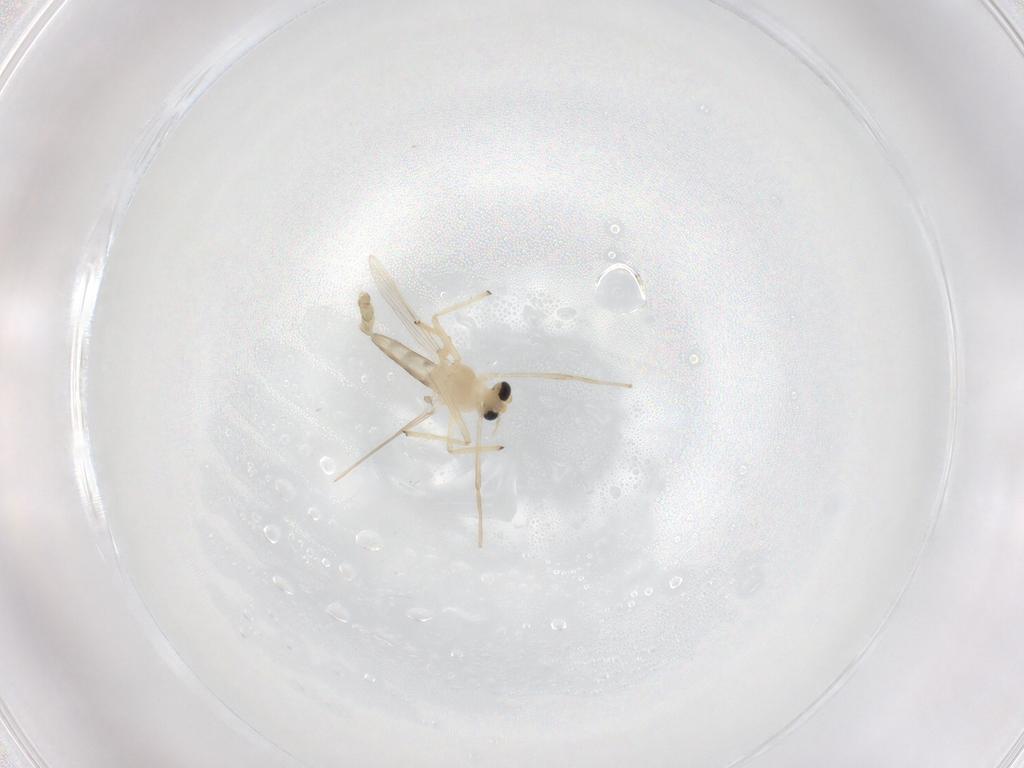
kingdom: Animalia
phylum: Arthropoda
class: Insecta
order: Diptera
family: Chironomidae
